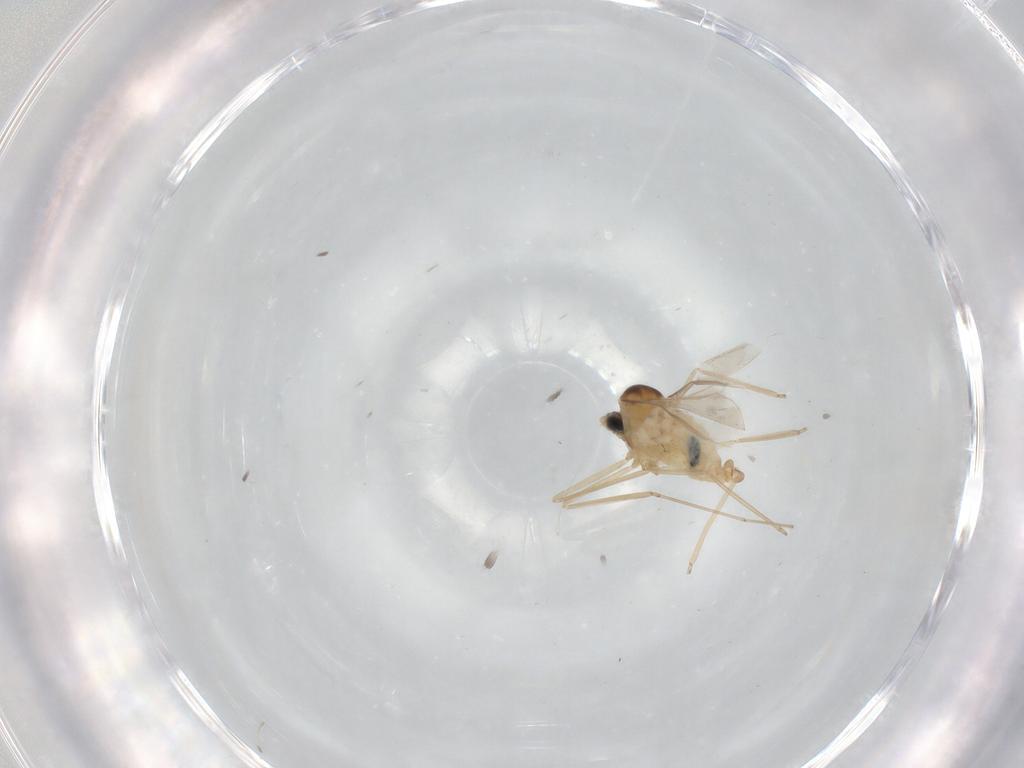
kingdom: Animalia
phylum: Arthropoda
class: Insecta
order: Diptera
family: Cecidomyiidae
